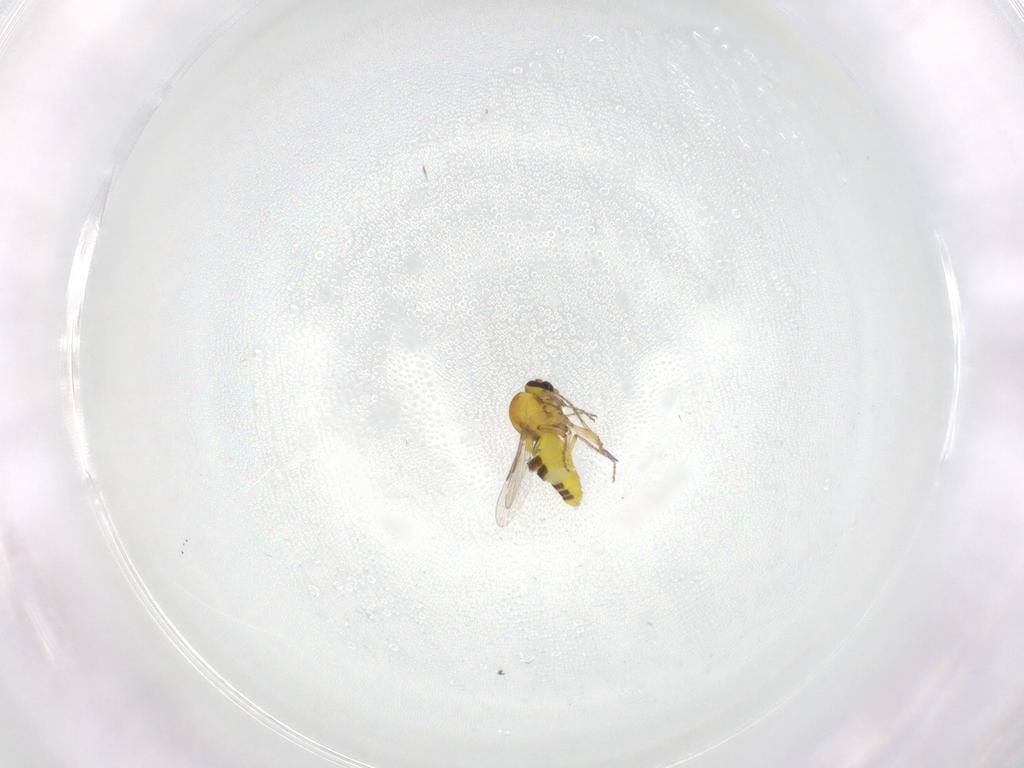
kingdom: Animalia
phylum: Arthropoda
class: Insecta
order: Diptera
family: Ceratopogonidae
